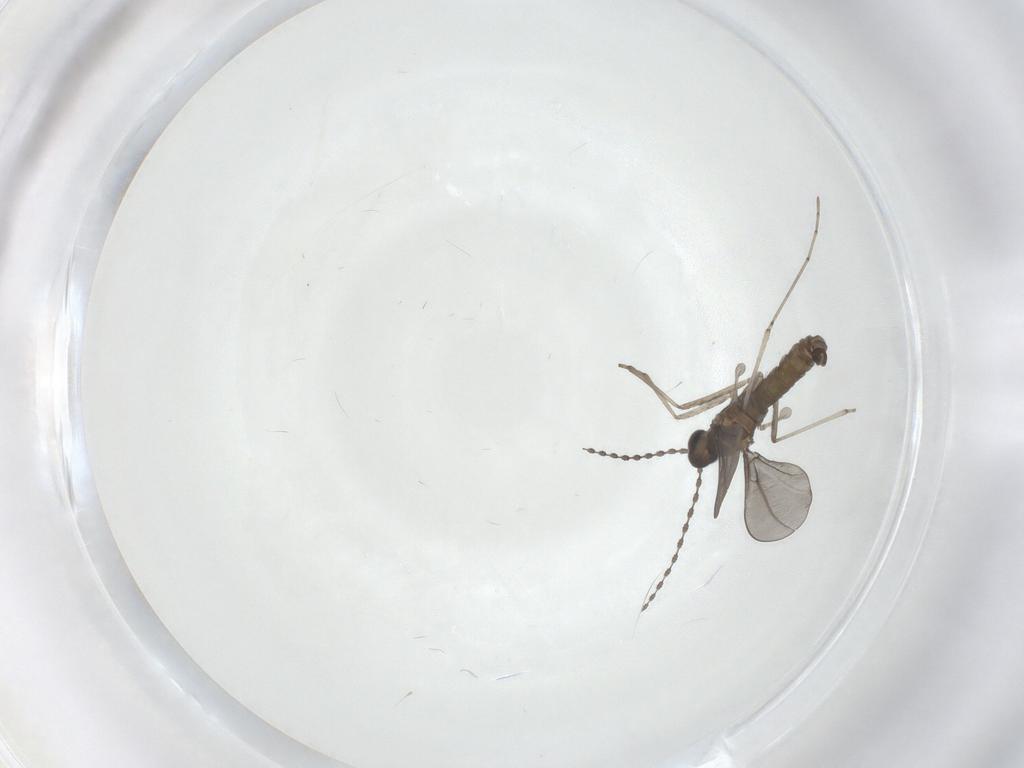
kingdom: Animalia
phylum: Arthropoda
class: Insecta
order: Diptera
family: Cecidomyiidae
